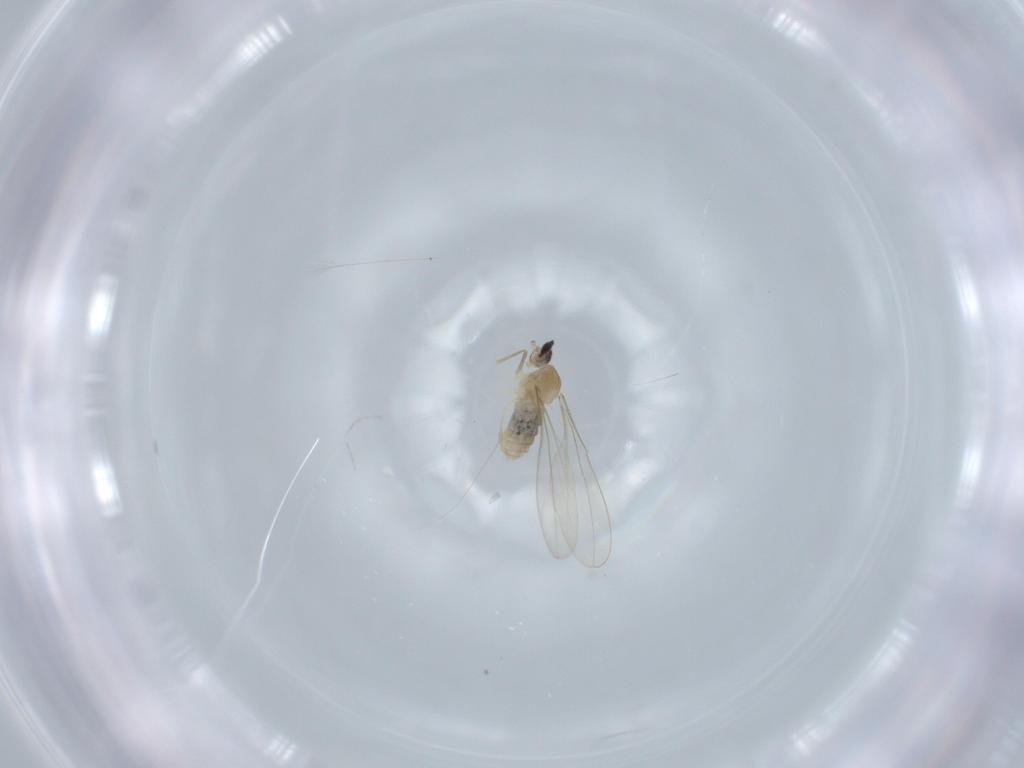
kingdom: Animalia
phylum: Arthropoda
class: Insecta
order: Diptera
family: Cecidomyiidae
